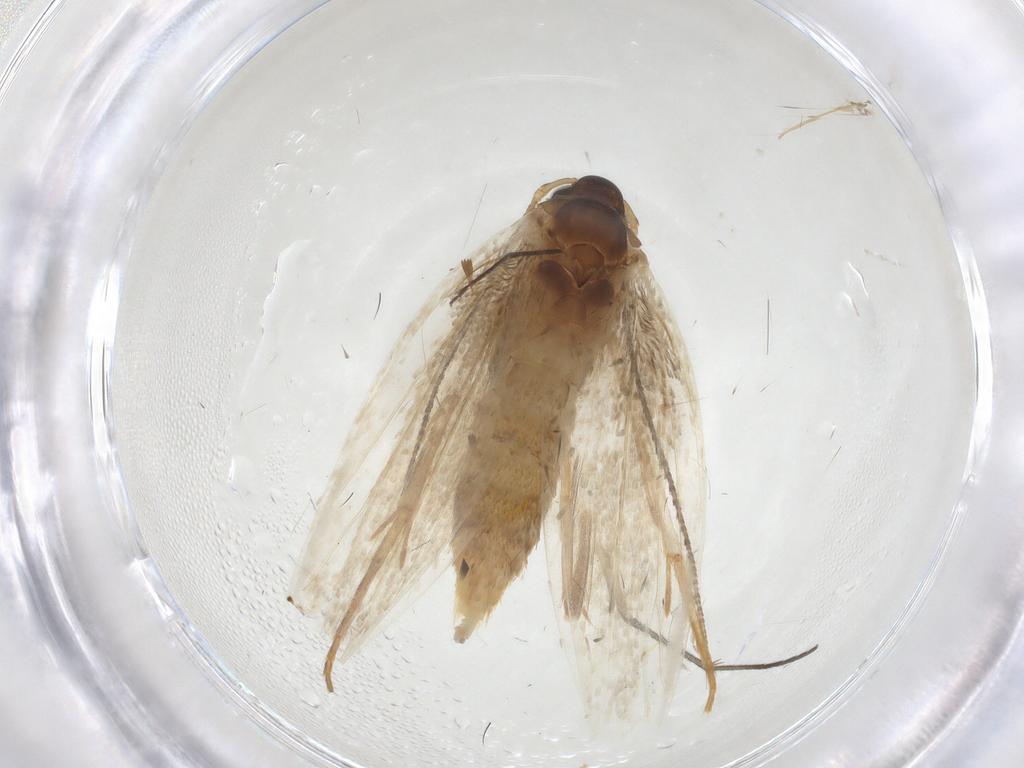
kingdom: Animalia
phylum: Arthropoda
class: Insecta
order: Lepidoptera
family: Erebidae
